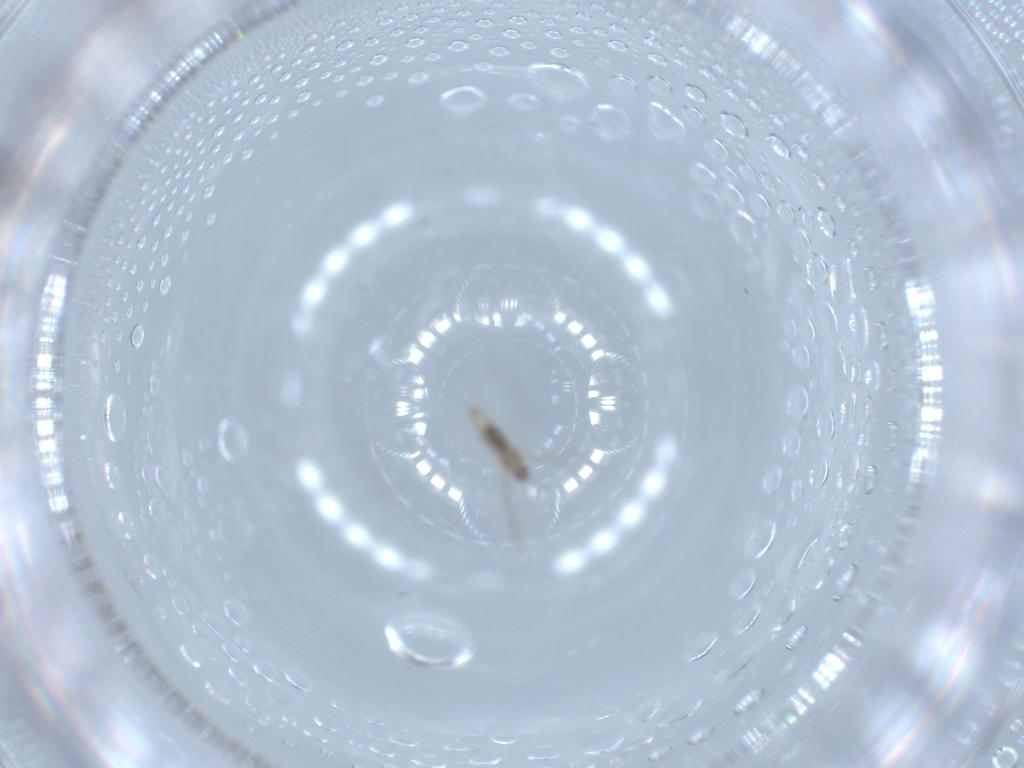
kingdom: Animalia
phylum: Arthropoda
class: Insecta
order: Diptera
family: Cecidomyiidae
